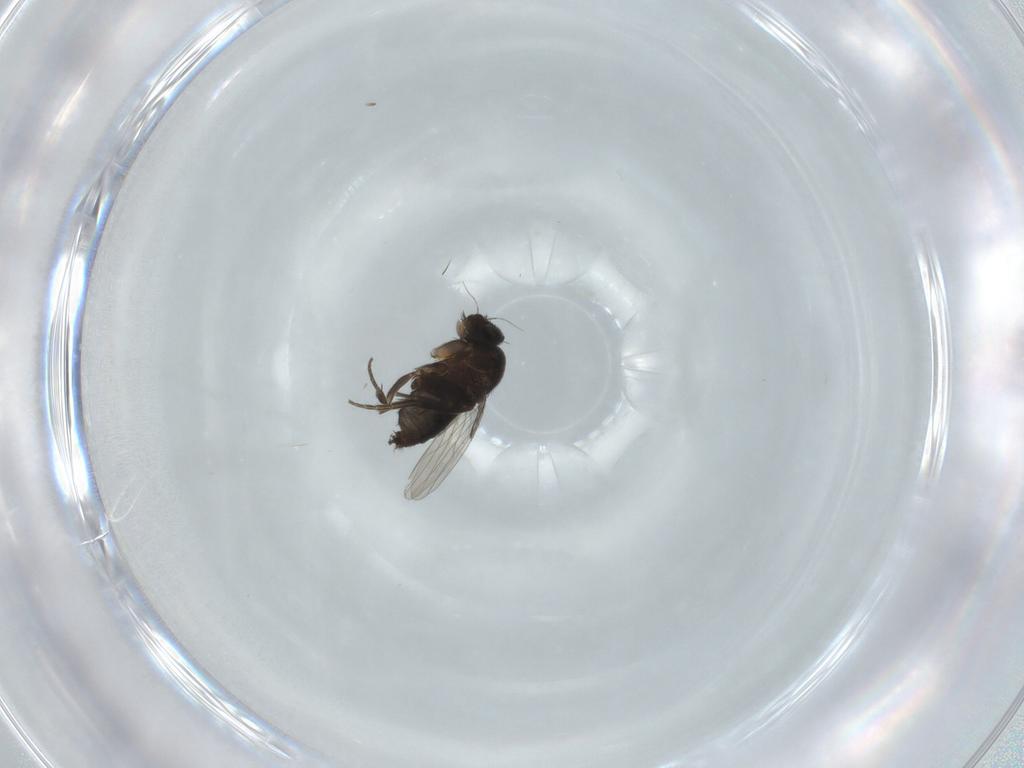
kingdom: Animalia
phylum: Arthropoda
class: Insecta
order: Diptera
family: Phoridae
